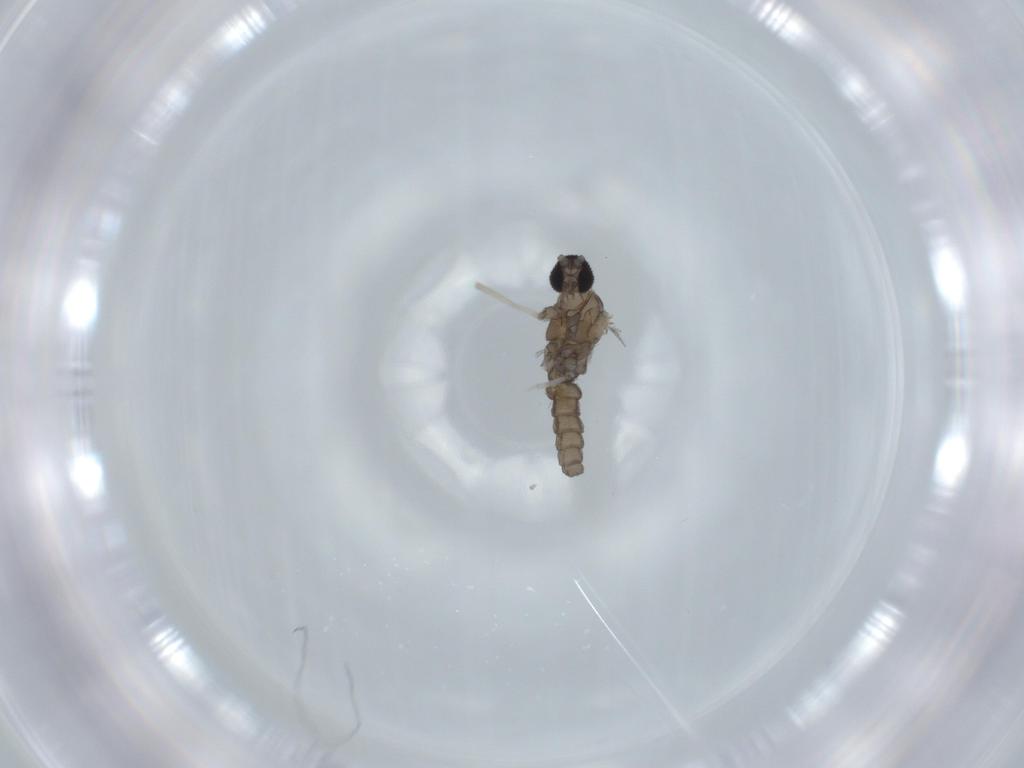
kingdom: Animalia
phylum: Arthropoda
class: Insecta
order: Diptera
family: Cecidomyiidae
